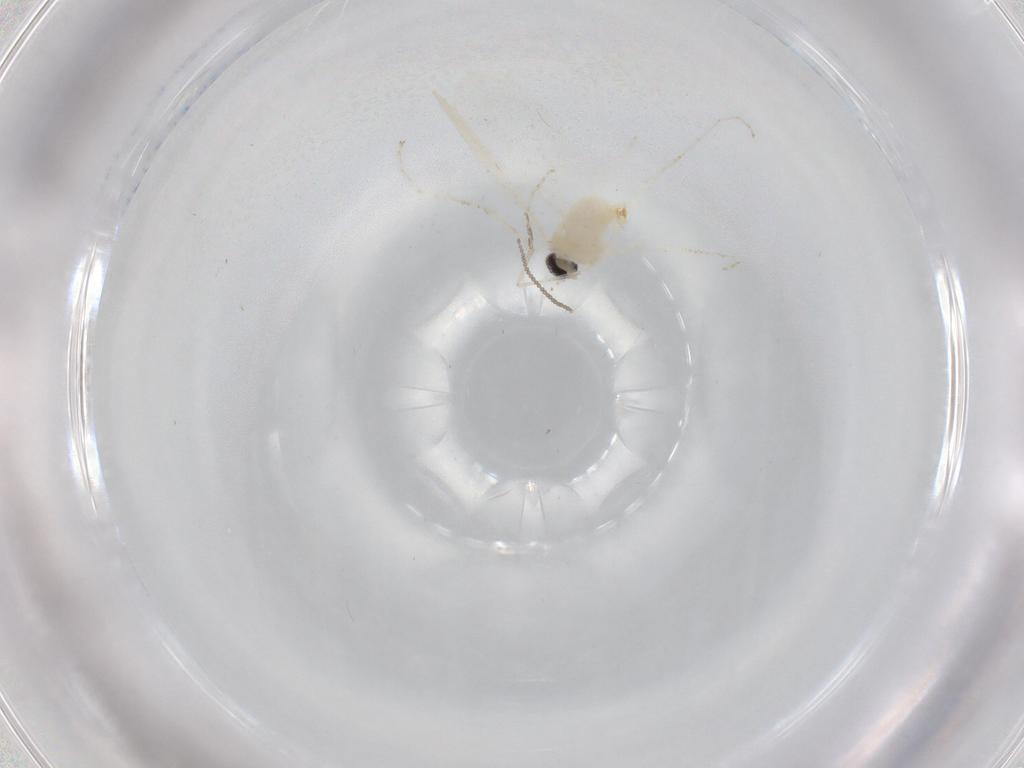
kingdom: Animalia
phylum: Arthropoda
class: Insecta
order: Diptera
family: Cecidomyiidae
